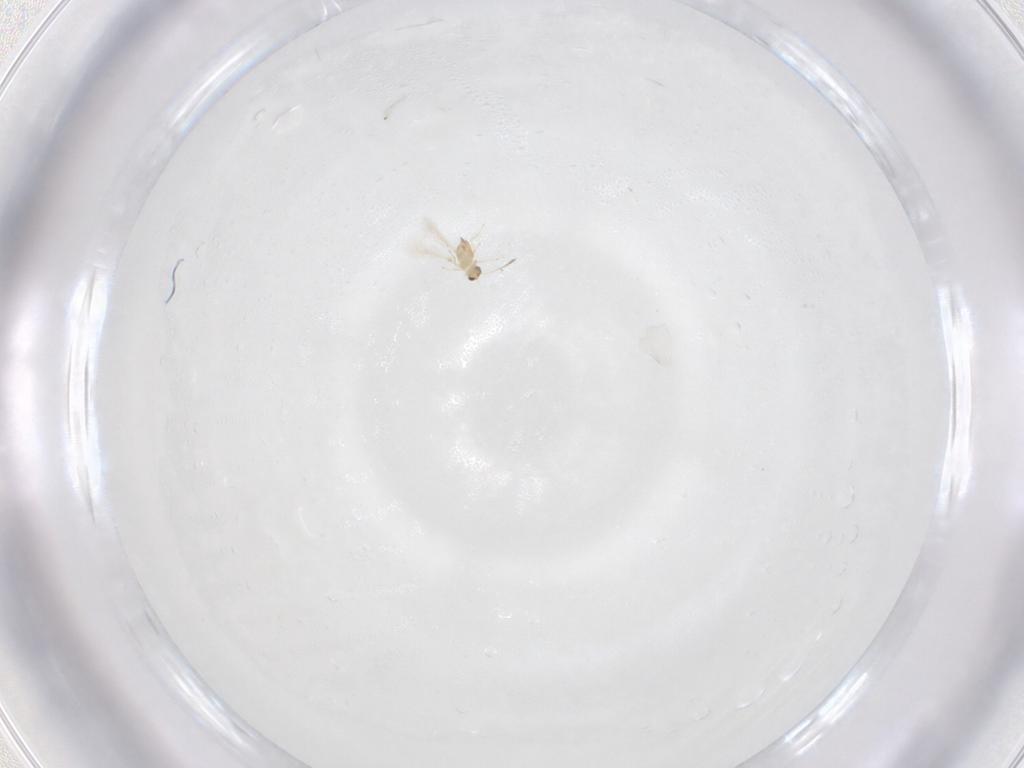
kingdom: Animalia
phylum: Arthropoda
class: Insecta
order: Hymenoptera
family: Mymaridae
